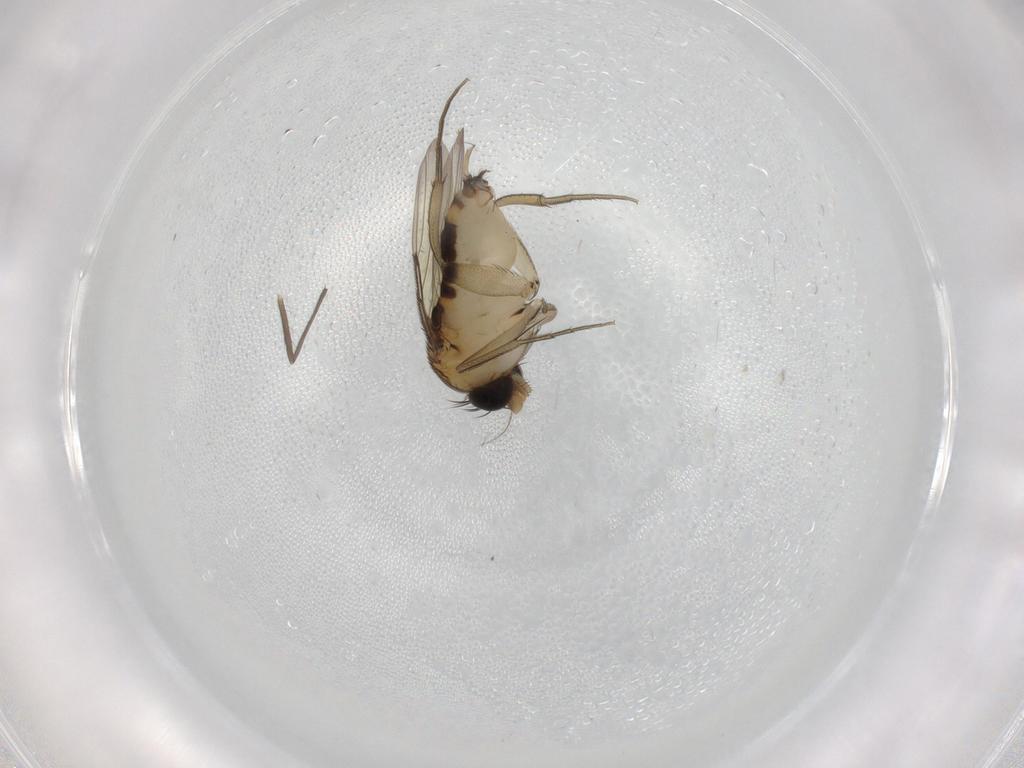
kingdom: Animalia
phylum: Arthropoda
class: Insecta
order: Diptera
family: Phoridae
